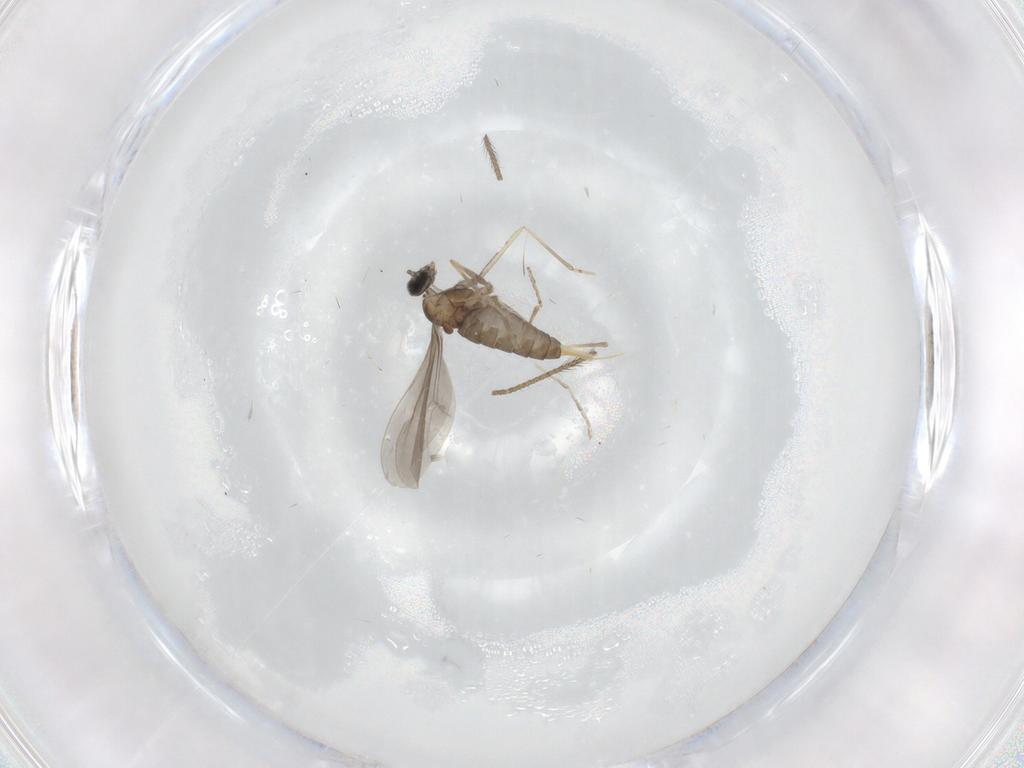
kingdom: Animalia
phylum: Arthropoda
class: Insecta
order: Diptera
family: Cecidomyiidae
